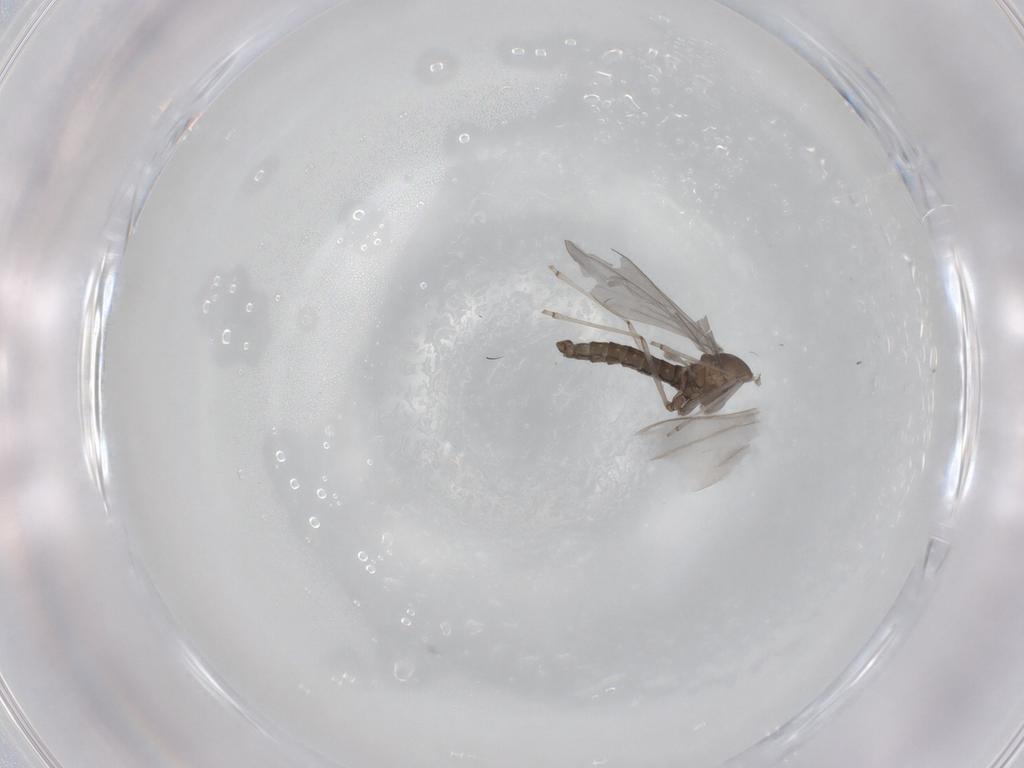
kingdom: Animalia
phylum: Arthropoda
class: Insecta
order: Diptera
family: Cecidomyiidae
